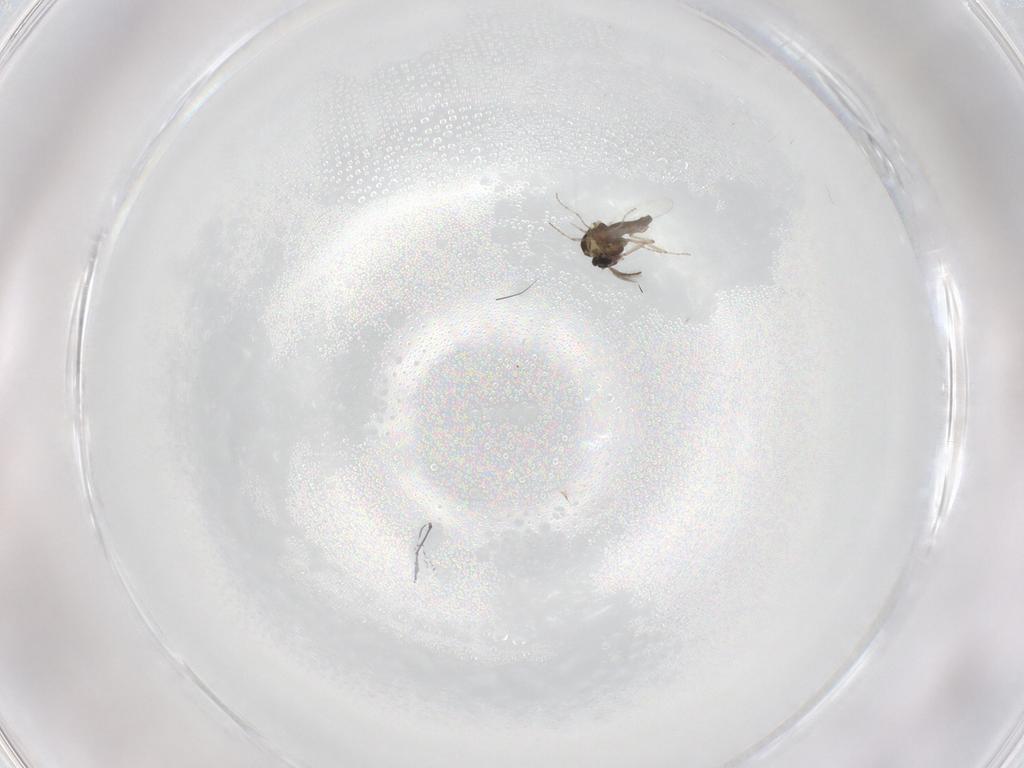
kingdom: Animalia
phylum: Arthropoda
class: Insecta
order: Diptera
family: Ceratopogonidae
